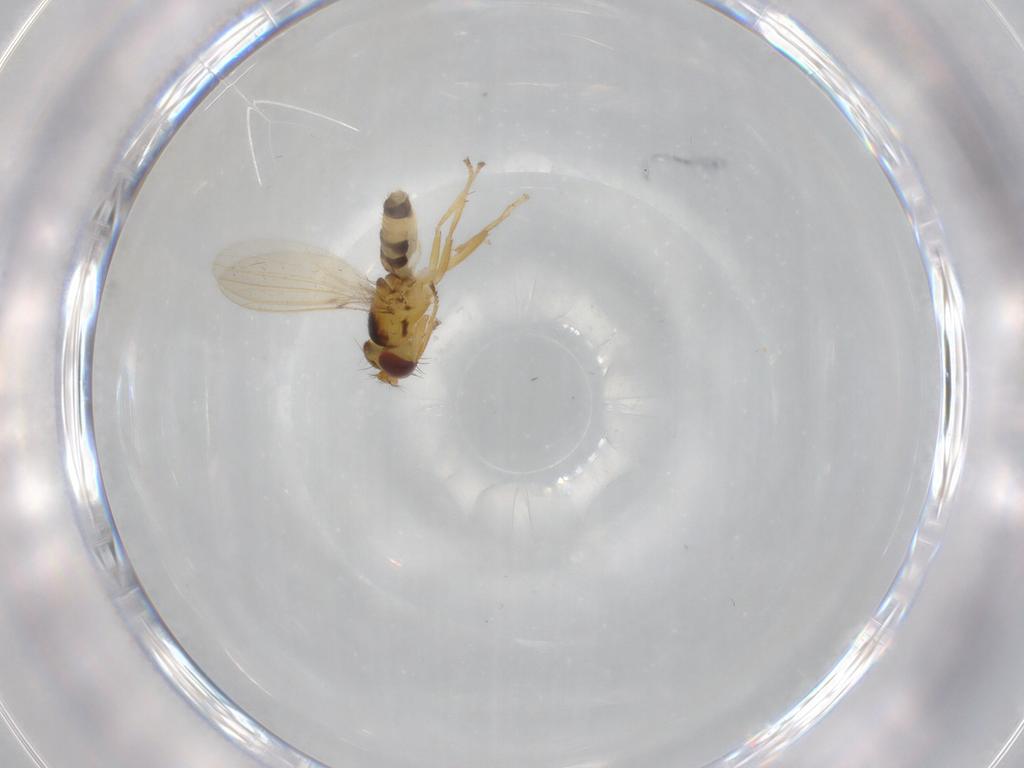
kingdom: Animalia
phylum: Arthropoda
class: Insecta
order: Diptera
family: Periscelididae
